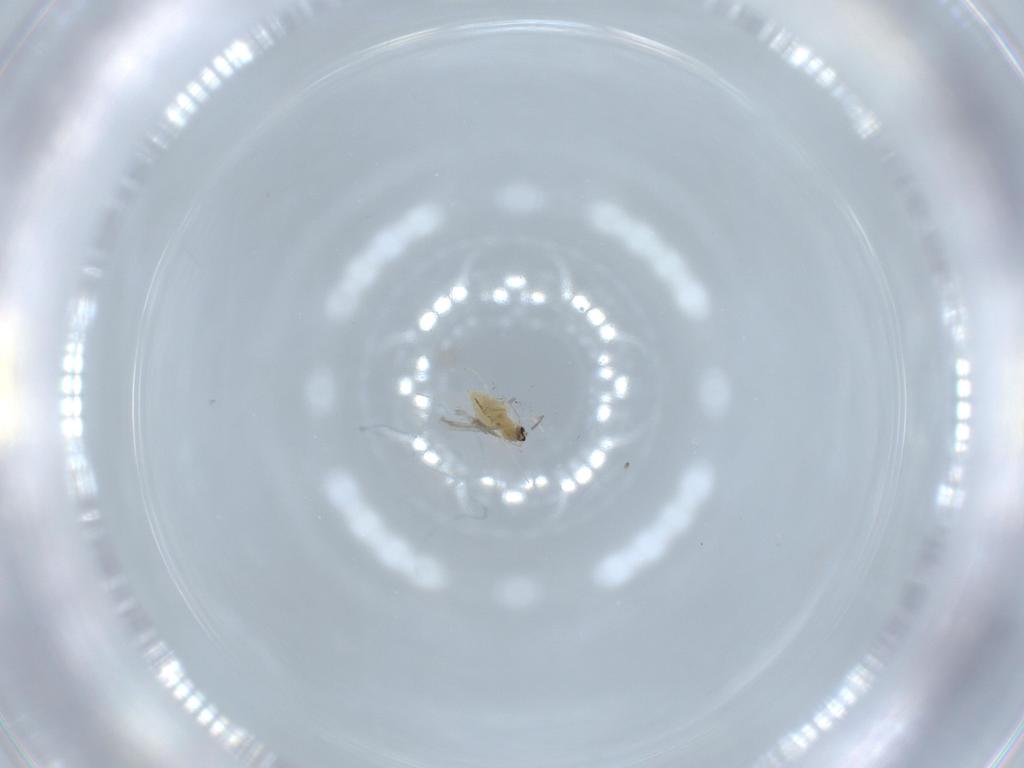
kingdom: Animalia
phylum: Arthropoda
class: Insecta
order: Diptera
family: Cecidomyiidae
